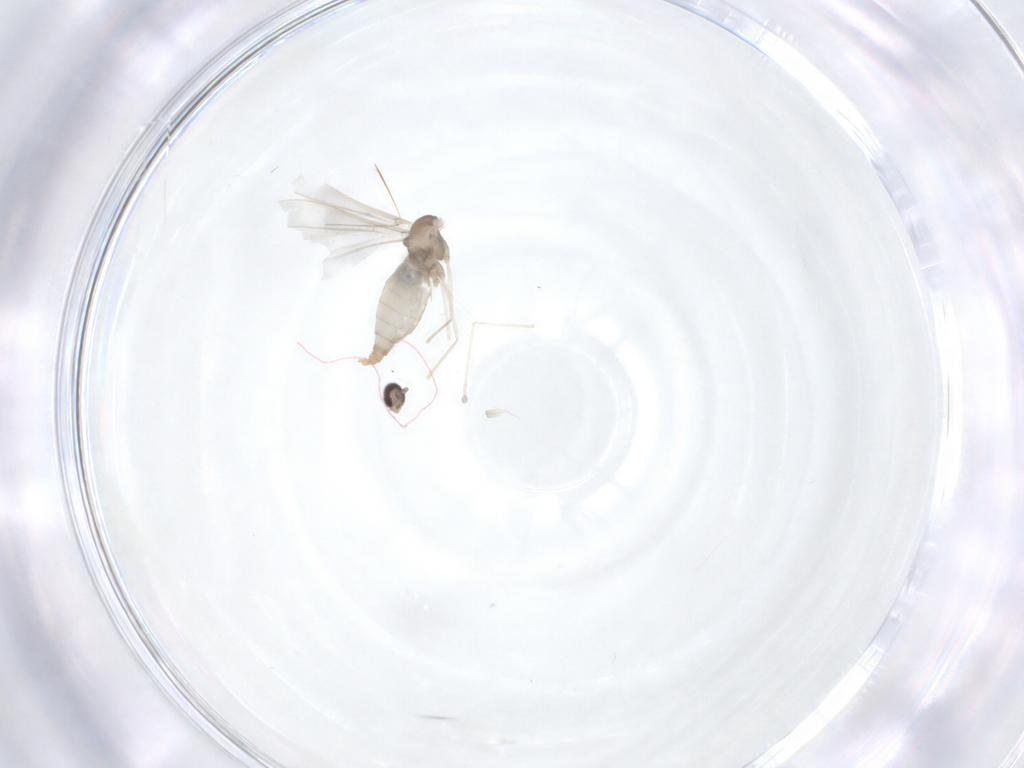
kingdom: Animalia
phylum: Arthropoda
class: Insecta
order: Diptera
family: Cecidomyiidae
